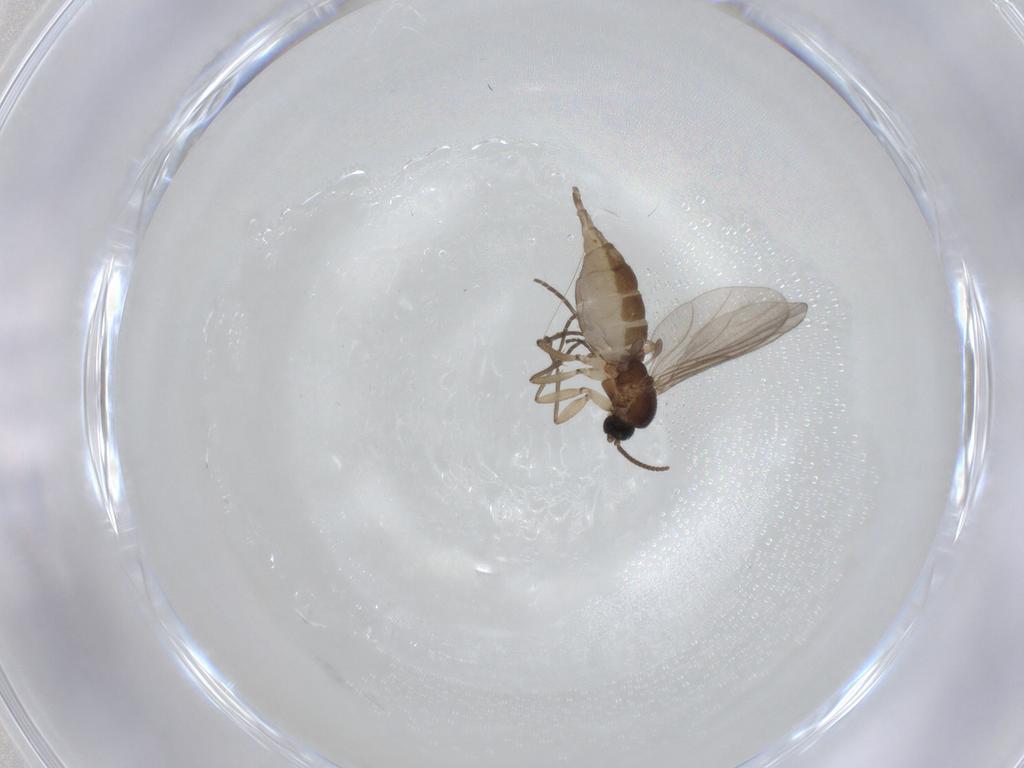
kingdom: Animalia
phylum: Arthropoda
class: Insecta
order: Diptera
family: Sciaridae
